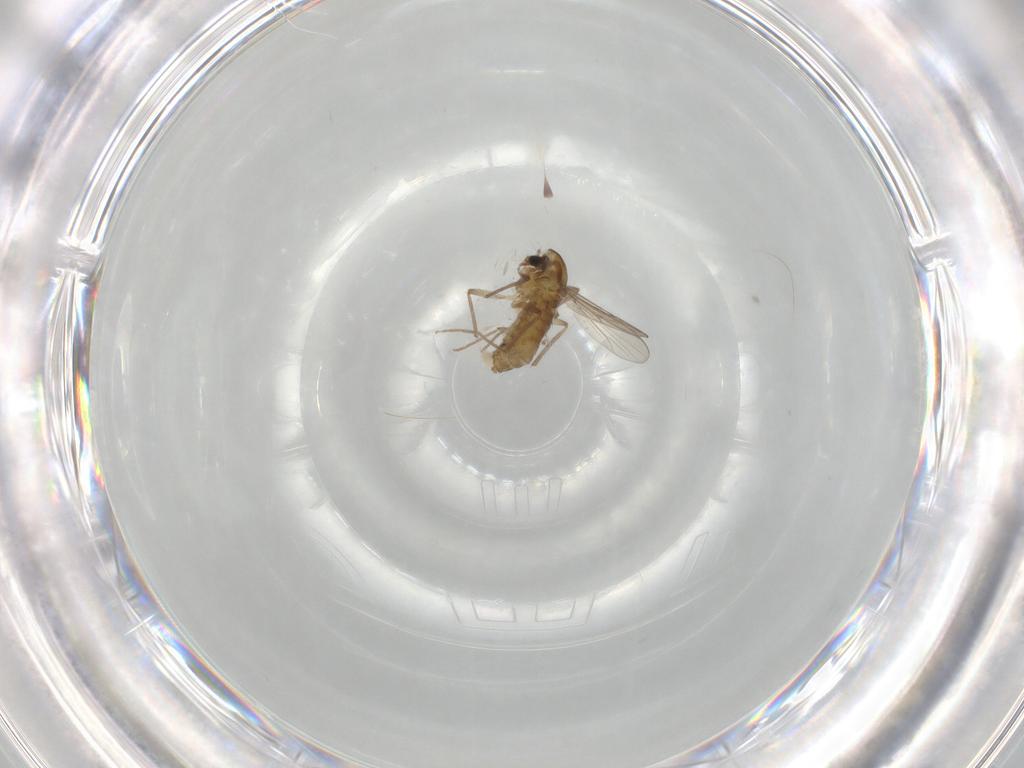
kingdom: Animalia
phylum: Arthropoda
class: Insecta
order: Diptera
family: Chironomidae
